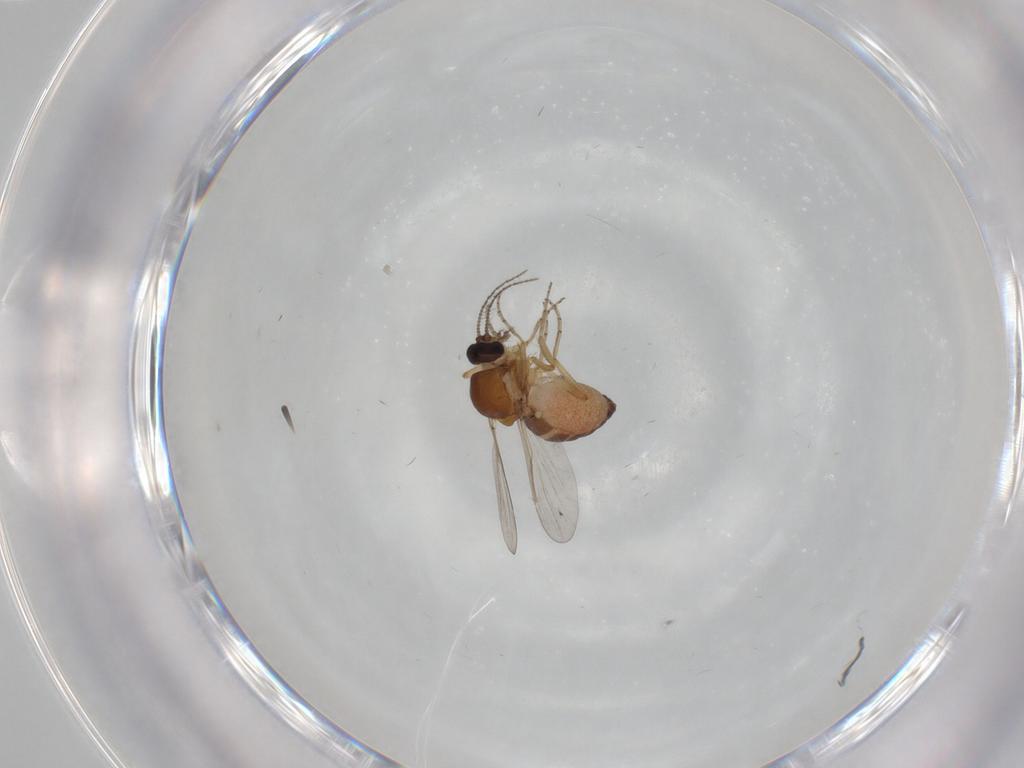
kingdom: Animalia
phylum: Arthropoda
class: Insecta
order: Diptera
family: Ceratopogonidae
